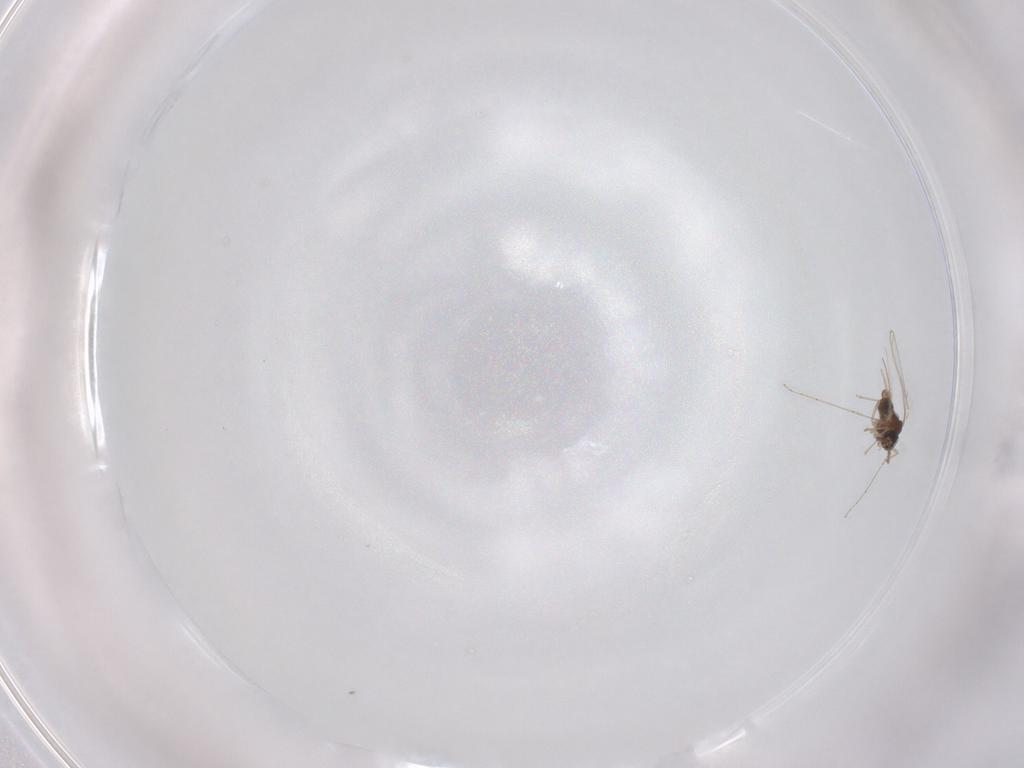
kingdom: Animalia
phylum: Arthropoda
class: Insecta
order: Diptera
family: Cecidomyiidae
